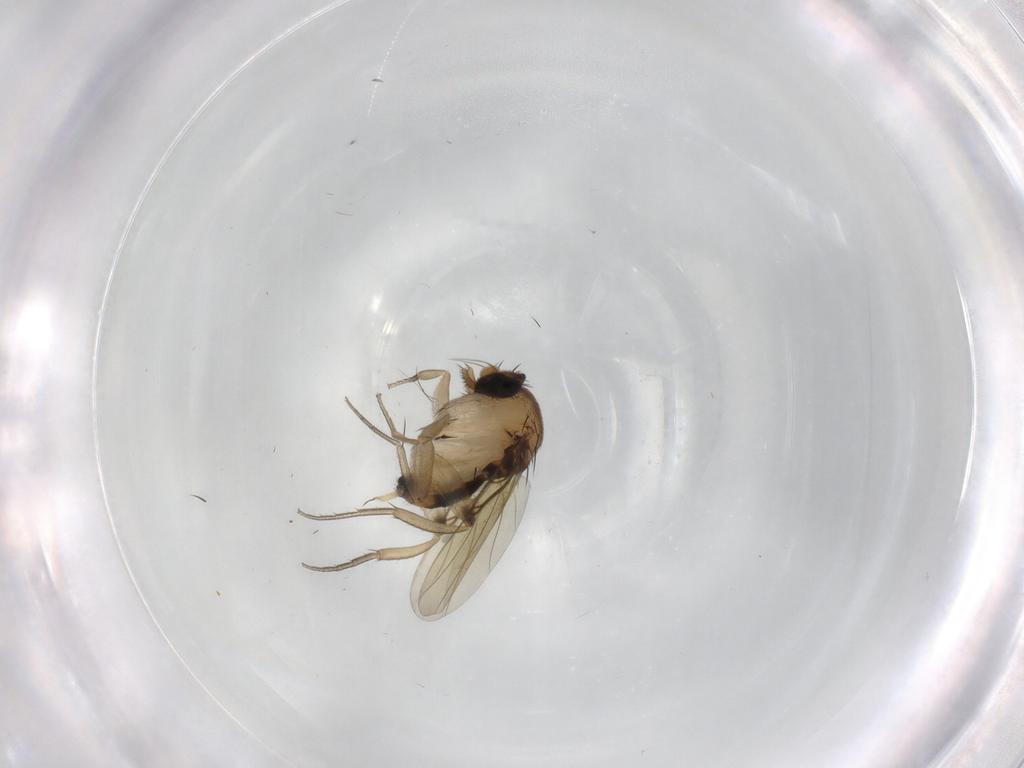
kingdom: Animalia
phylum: Arthropoda
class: Insecta
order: Diptera
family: Phoridae
